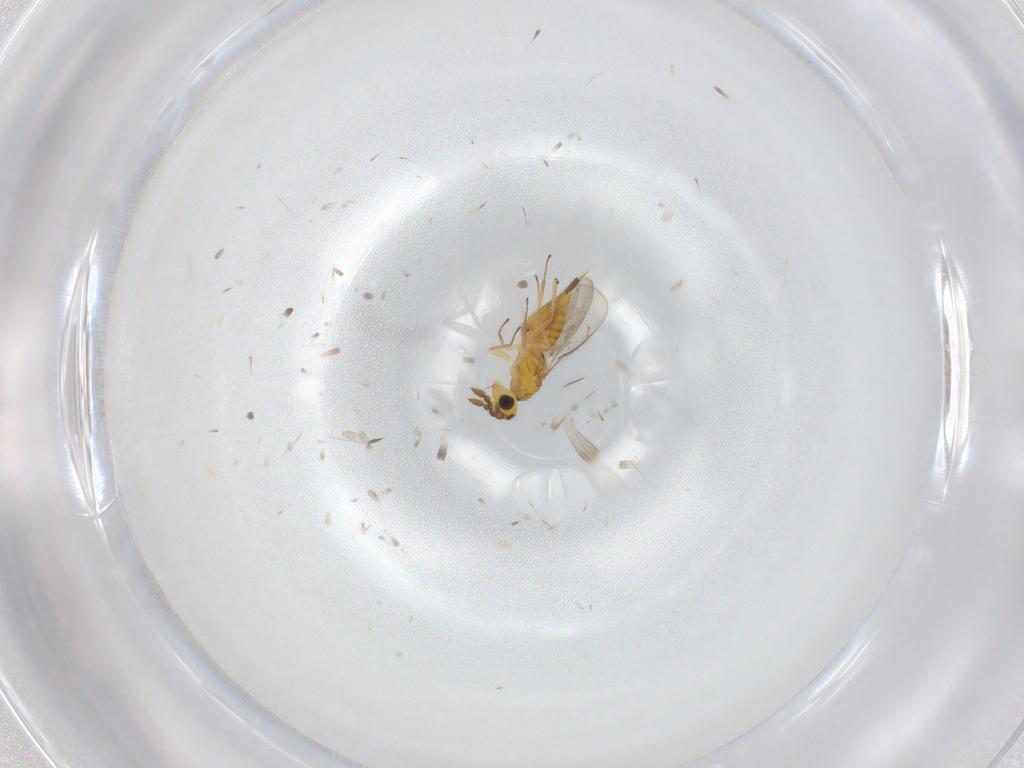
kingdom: Animalia
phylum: Arthropoda
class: Insecta
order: Hymenoptera
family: Eulophidae
